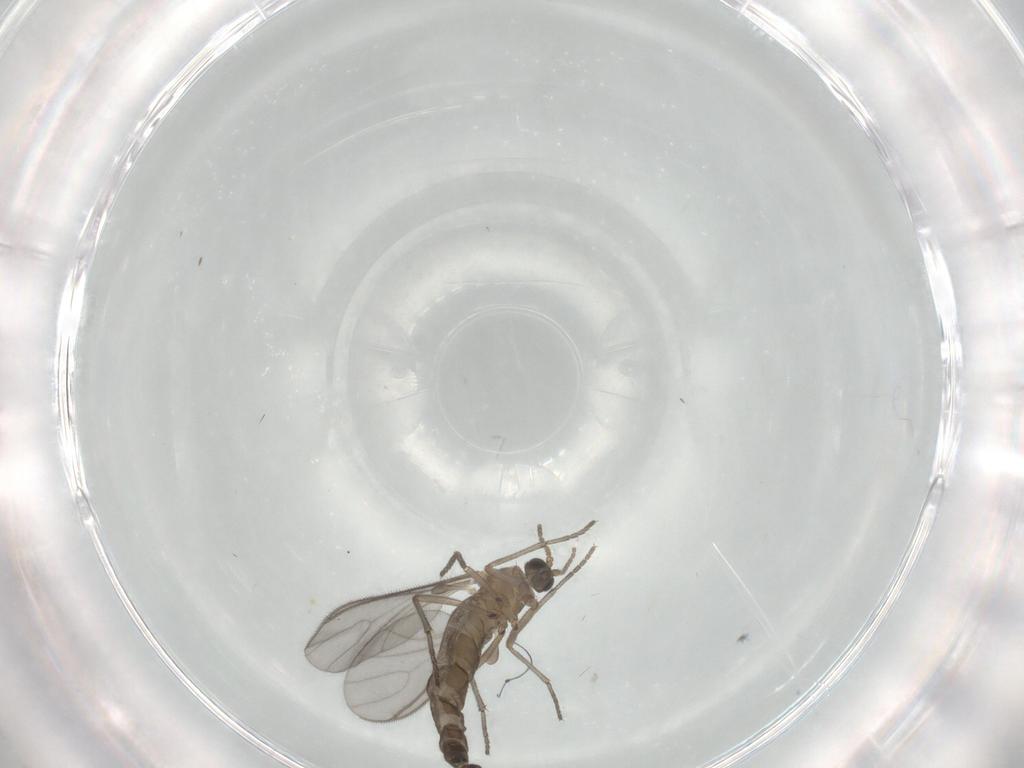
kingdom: Animalia
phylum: Arthropoda
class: Insecta
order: Diptera
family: Sciaridae
